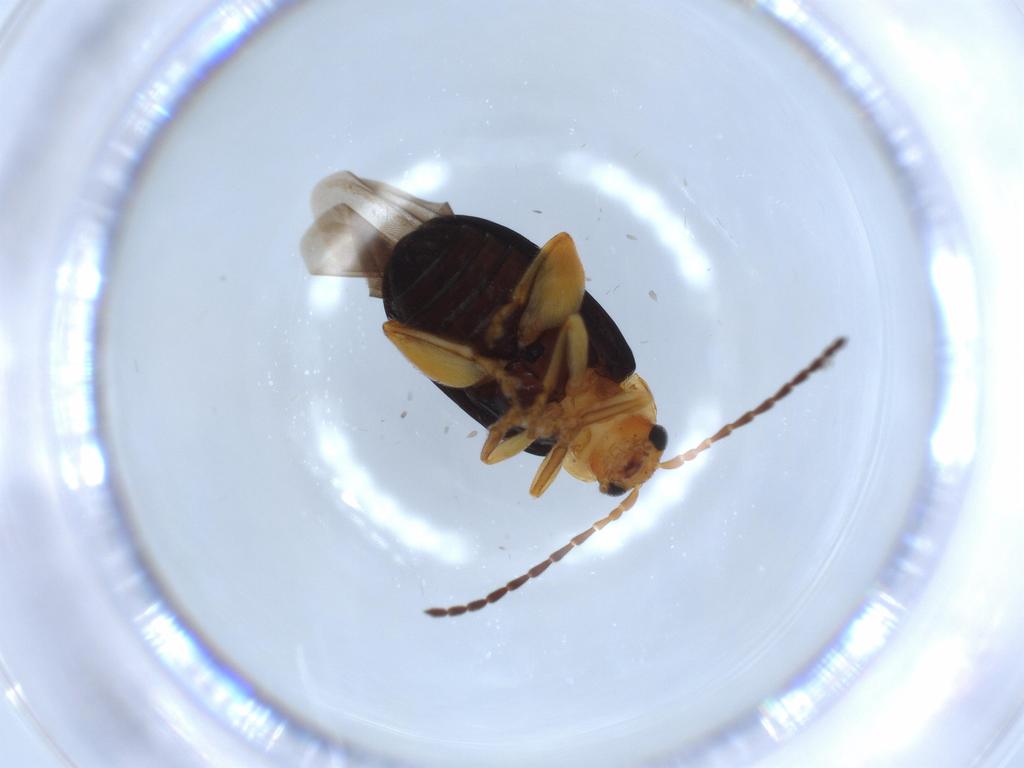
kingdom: Animalia
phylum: Arthropoda
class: Insecta
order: Coleoptera
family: Chrysomelidae
